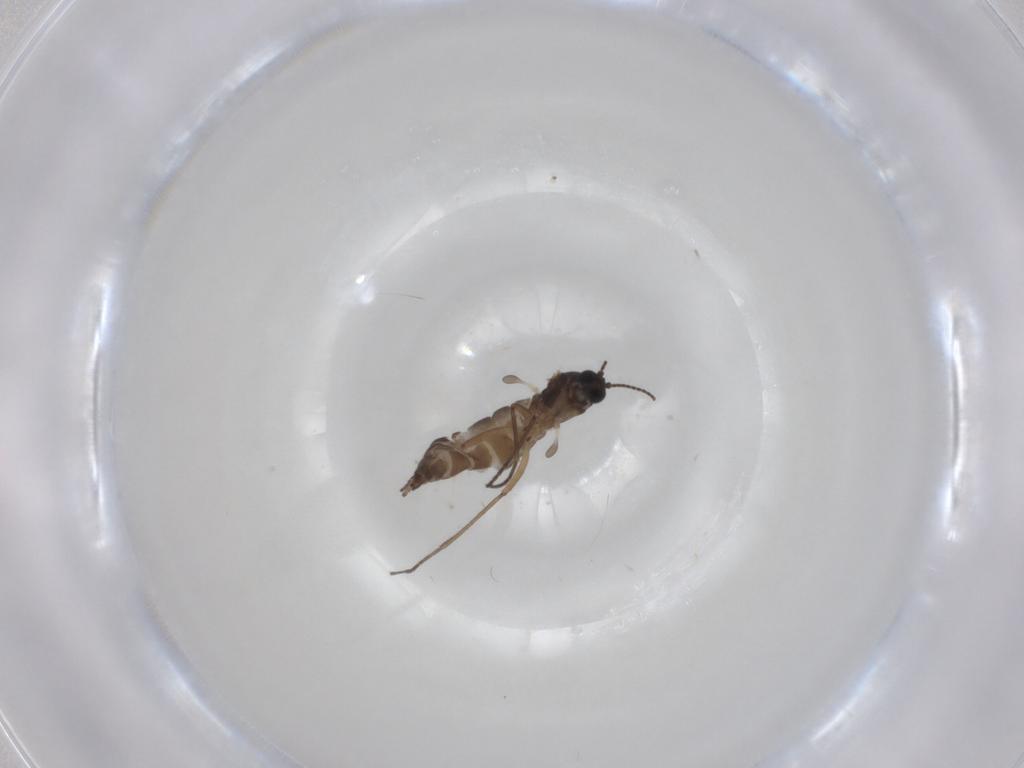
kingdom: Animalia
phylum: Arthropoda
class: Insecta
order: Diptera
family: Sciaridae
